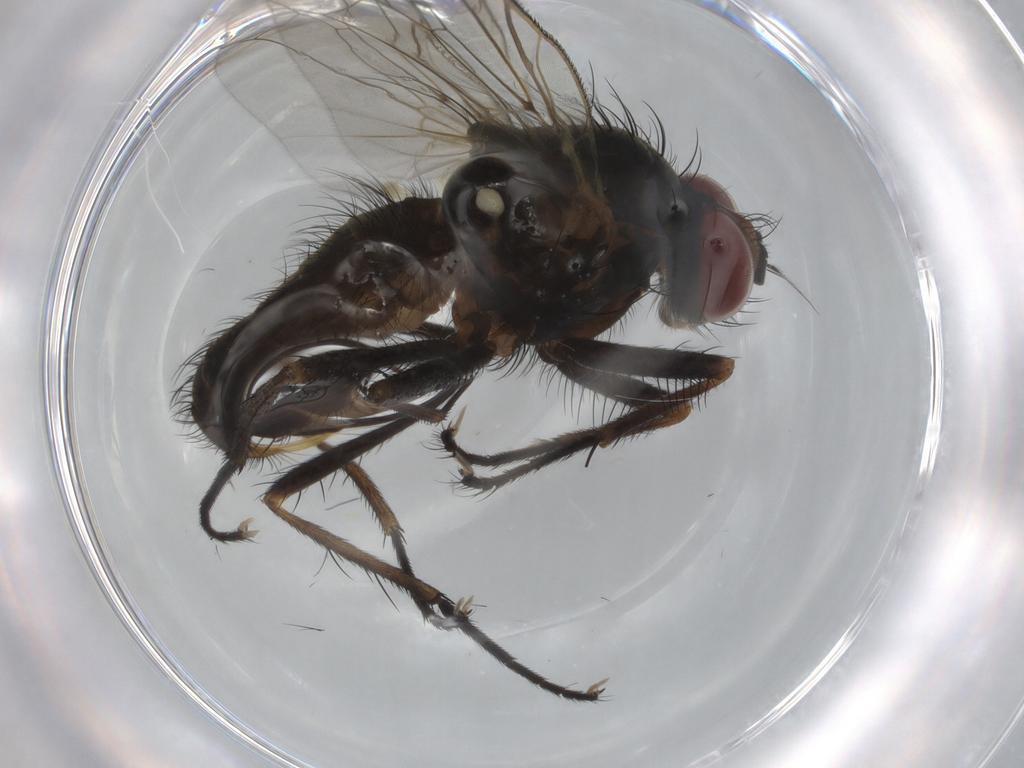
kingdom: Animalia
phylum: Arthropoda
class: Insecta
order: Diptera
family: Anthomyiidae
